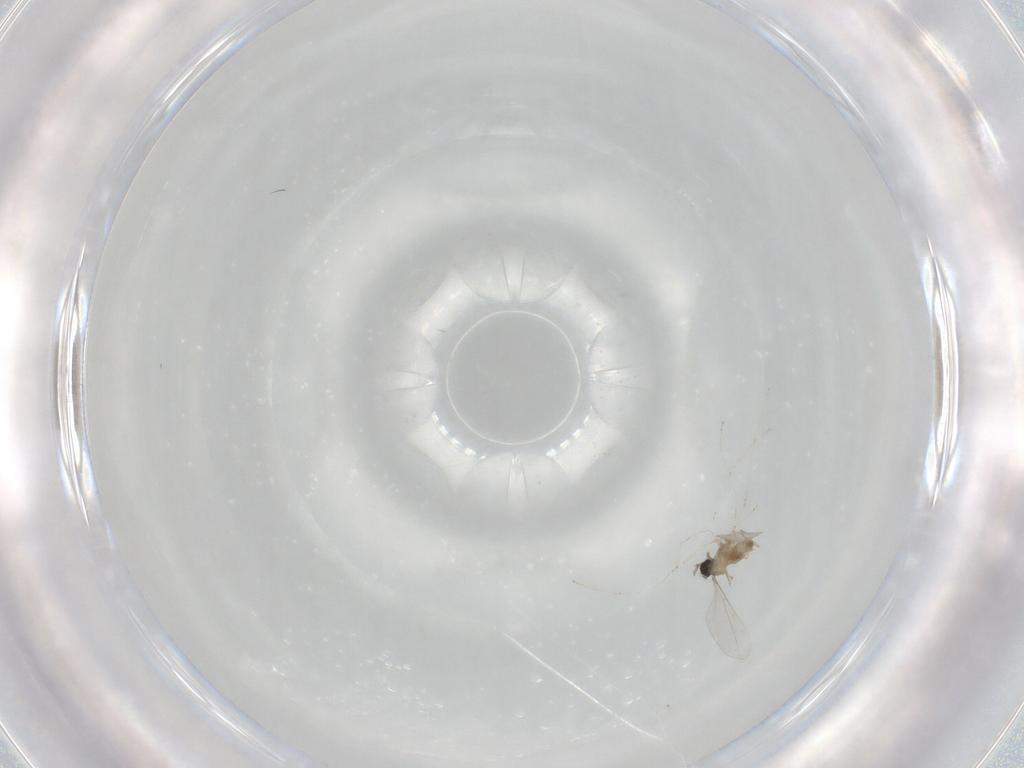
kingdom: Animalia
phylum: Arthropoda
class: Insecta
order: Diptera
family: Cecidomyiidae
